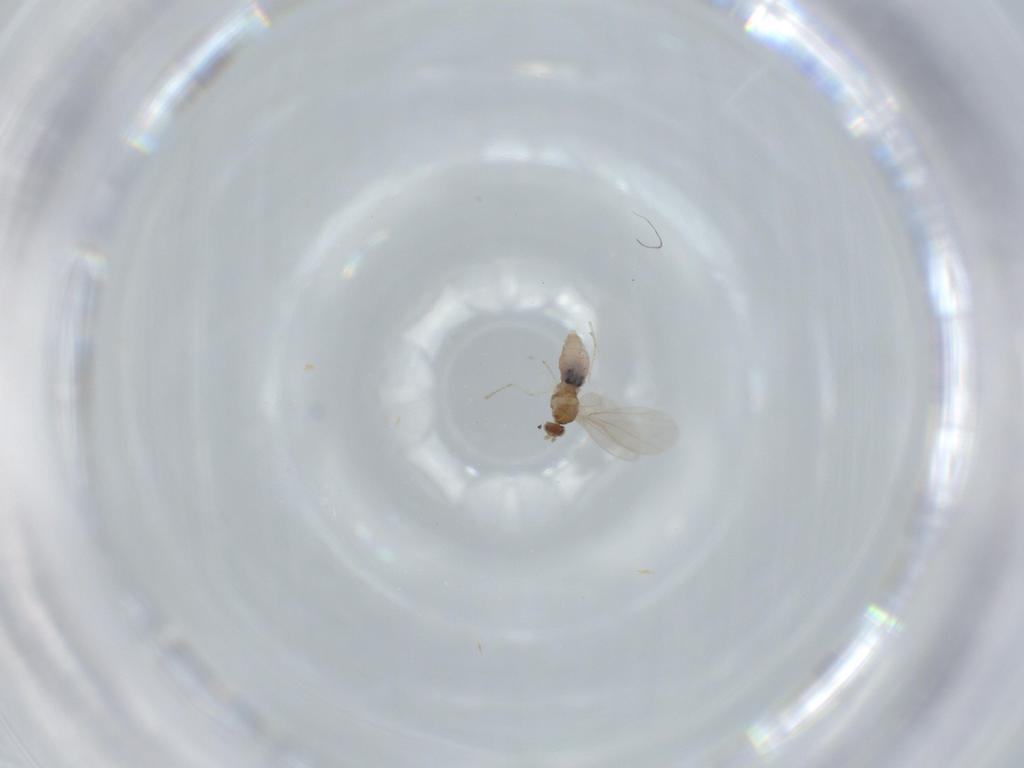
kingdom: Animalia
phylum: Arthropoda
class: Insecta
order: Diptera
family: Cecidomyiidae
